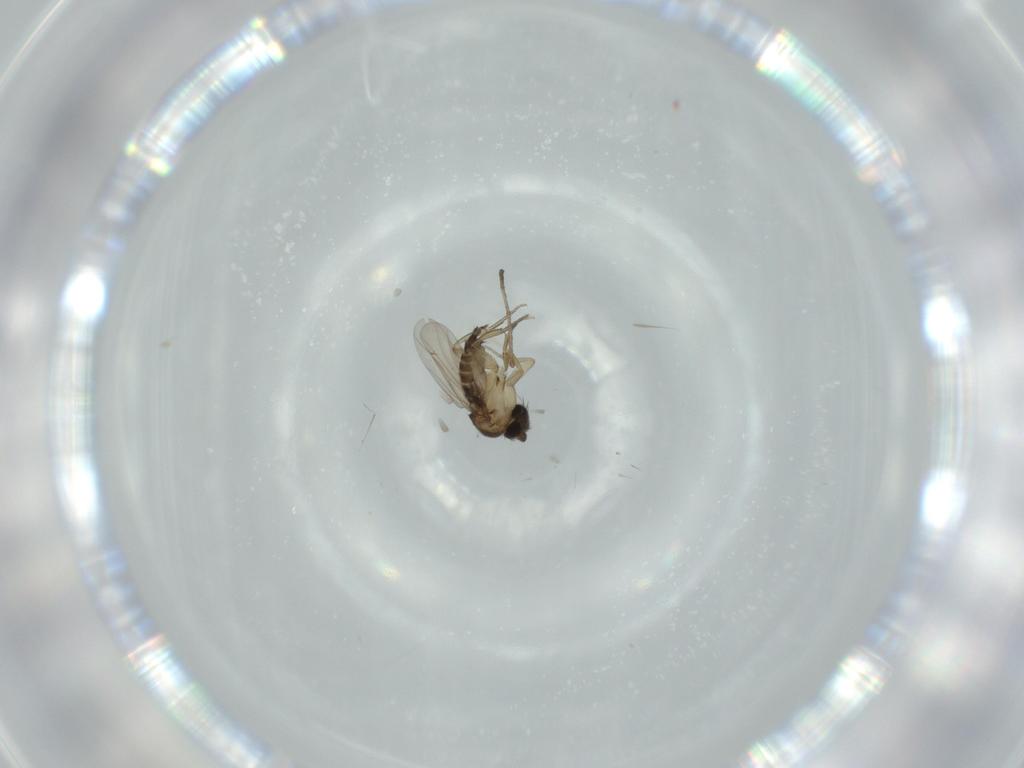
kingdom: Animalia
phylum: Arthropoda
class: Insecta
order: Diptera
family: Phoridae
